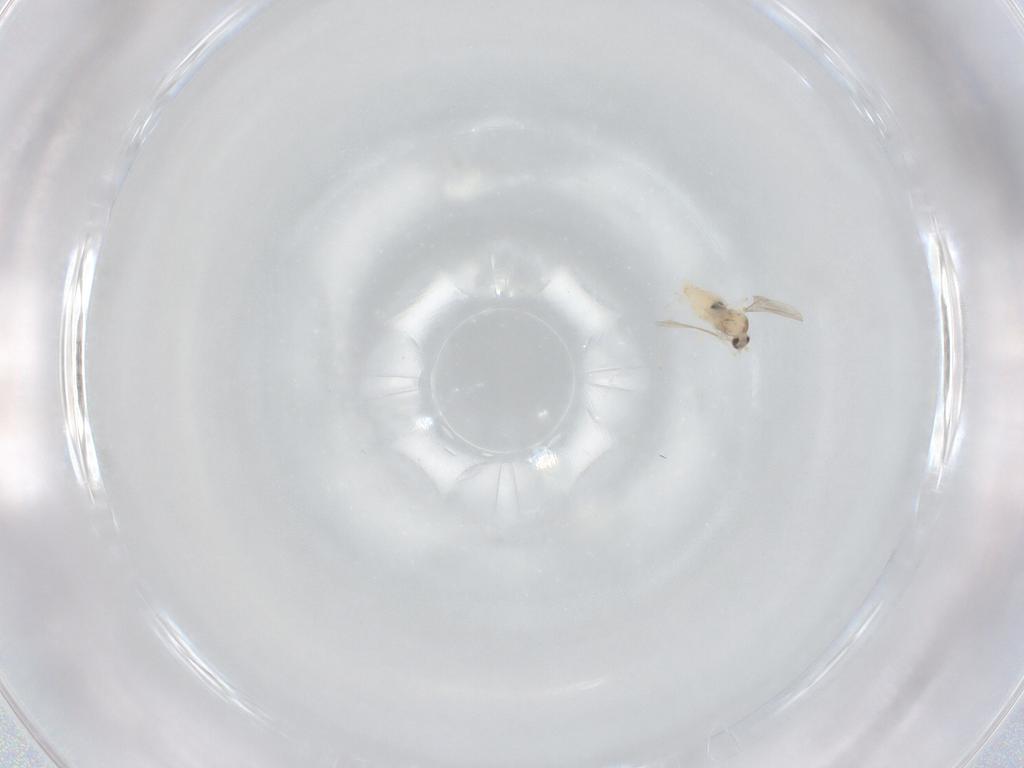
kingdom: Animalia
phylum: Arthropoda
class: Insecta
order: Diptera
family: Cecidomyiidae
